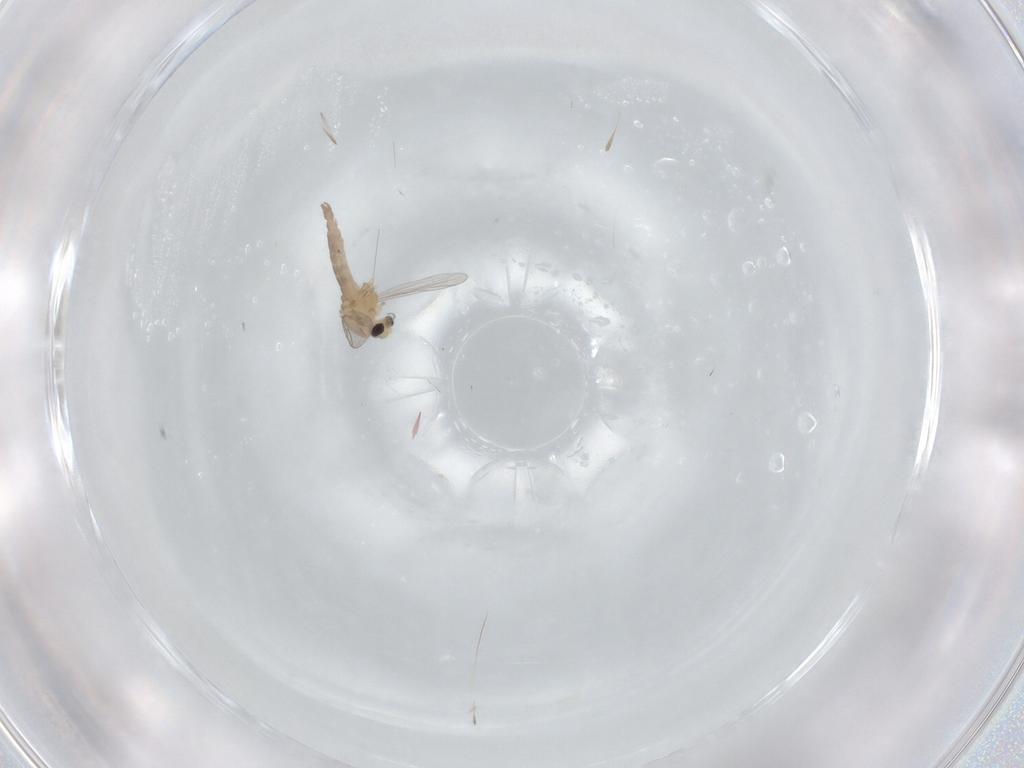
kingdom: Animalia
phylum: Arthropoda
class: Insecta
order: Diptera
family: Chironomidae
